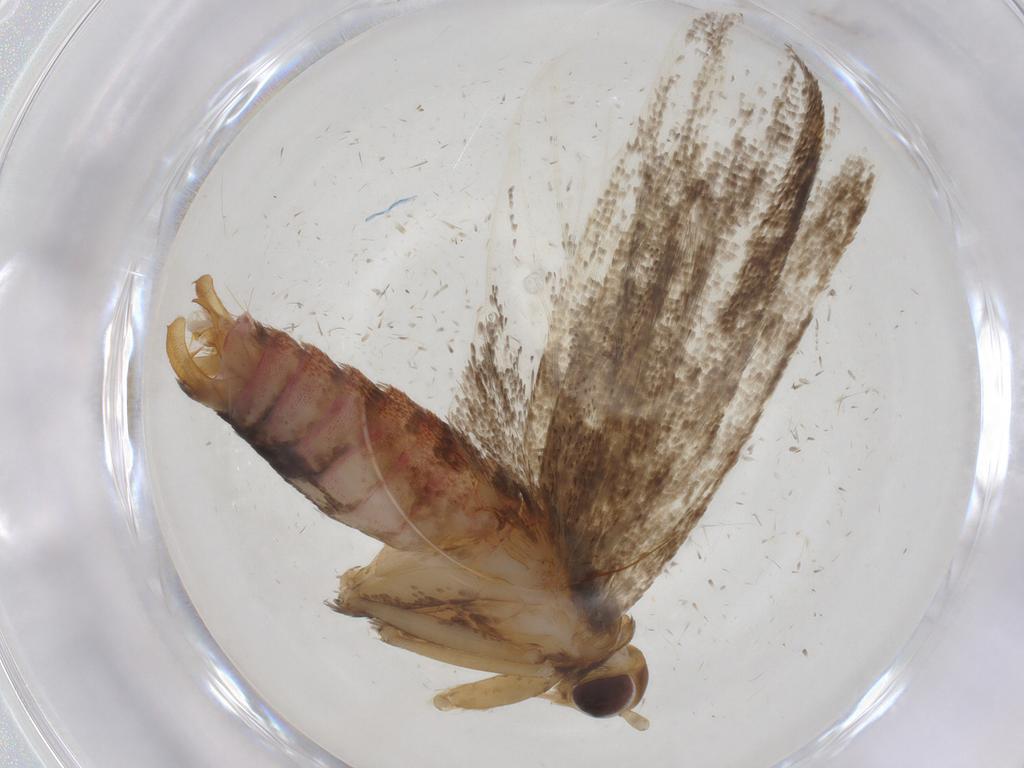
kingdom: Animalia
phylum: Arthropoda
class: Insecta
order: Lepidoptera
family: Lecithoceridae
